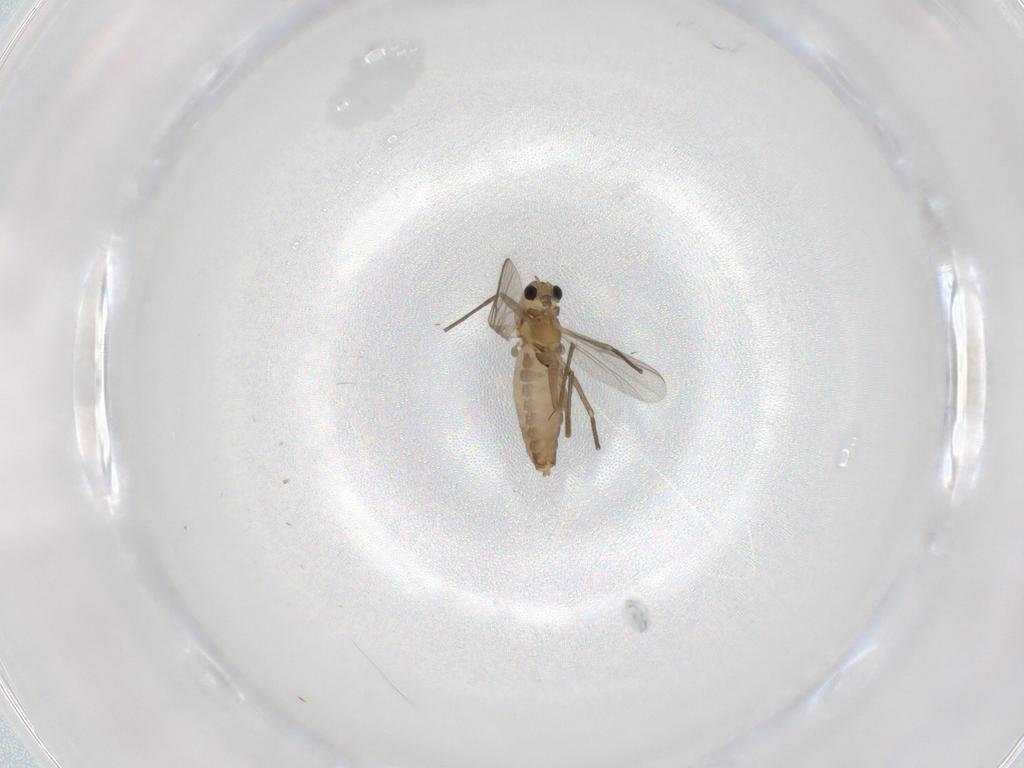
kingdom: Animalia
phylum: Arthropoda
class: Insecta
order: Diptera
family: Chironomidae
